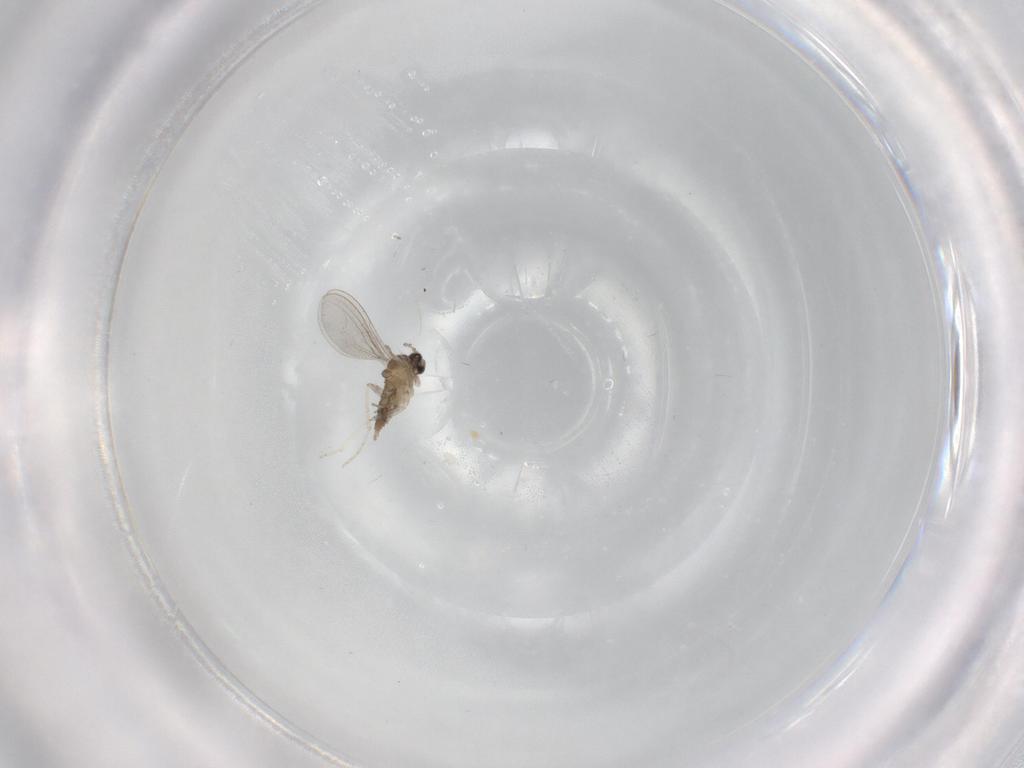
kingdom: Animalia
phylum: Arthropoda
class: Insecta
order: Diptera
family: Cecidomyiidae
